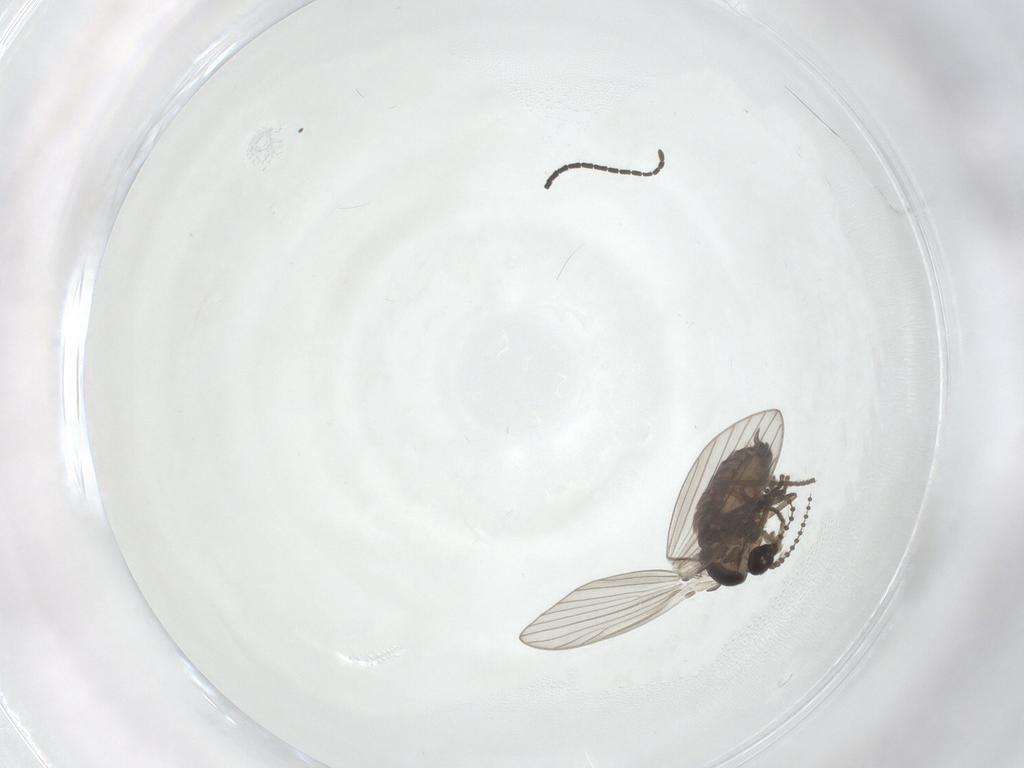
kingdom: Animalia
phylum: Arthropoda
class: Insecta
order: Diptera
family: Psychodidae
